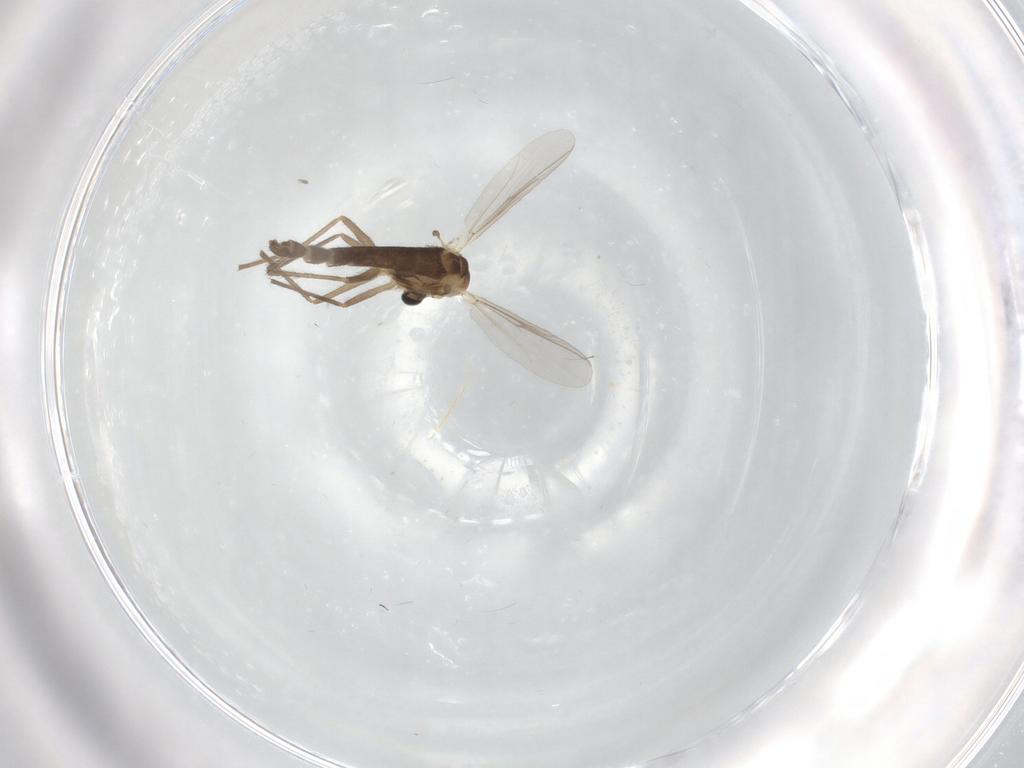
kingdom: Animalia
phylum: Arthropoda
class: Insecta
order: Diptera
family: Chironomidae
